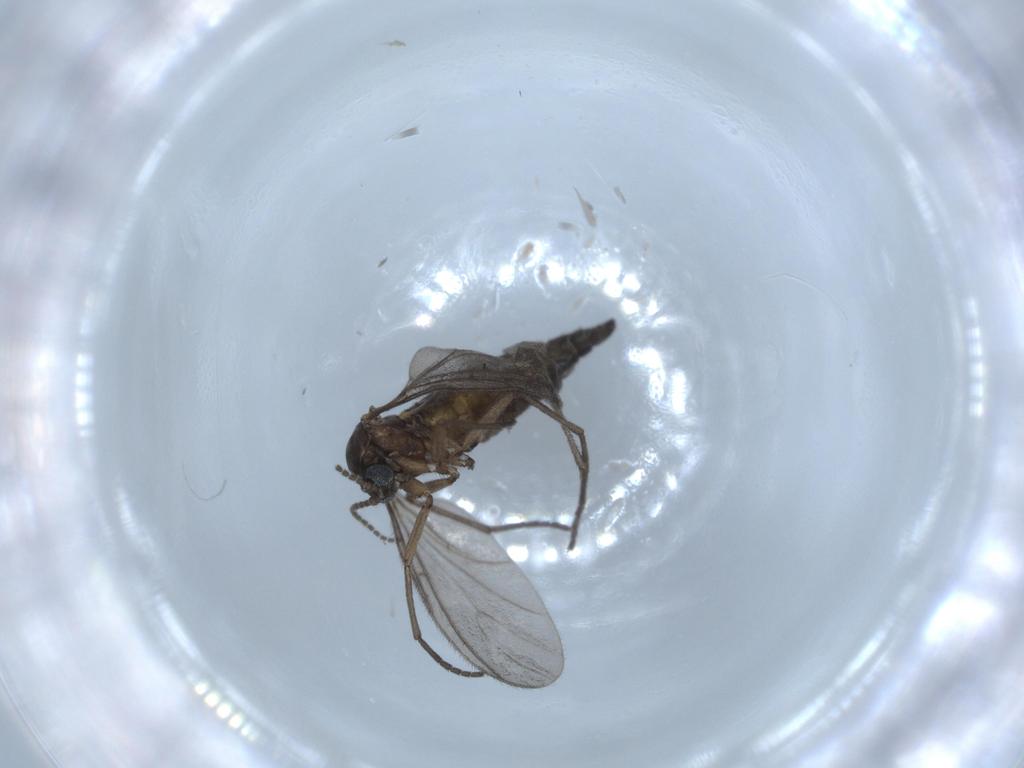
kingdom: Animalia
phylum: Arthropoda
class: Insecta
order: Diptera
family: Sciaridae
